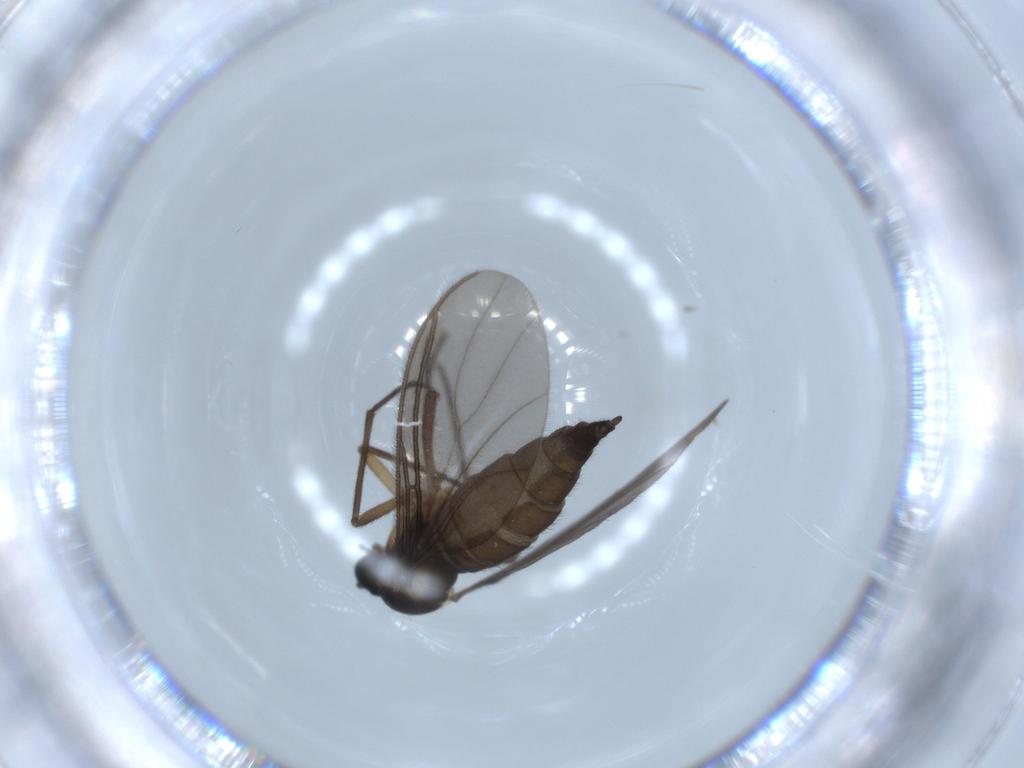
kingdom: Animalia
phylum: Arthropoda
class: Insecta
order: Diptera
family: Sciaridae
